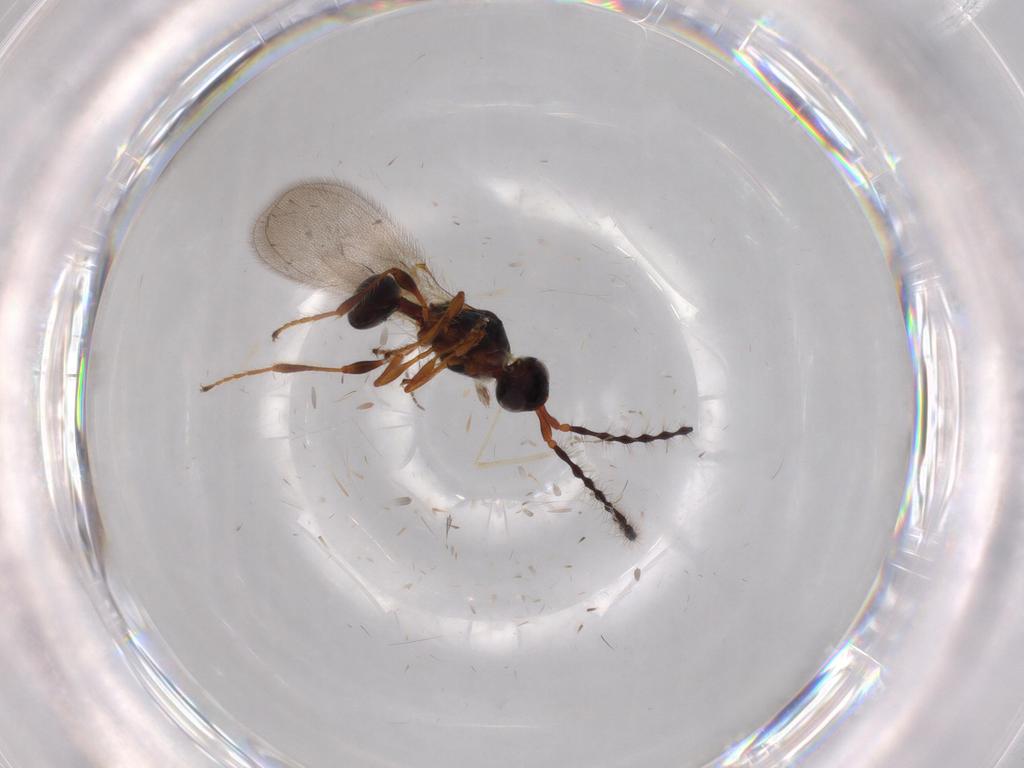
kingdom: Animalia
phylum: Arthropoda
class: Insecta
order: Hymenoptera
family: Diapriidae
